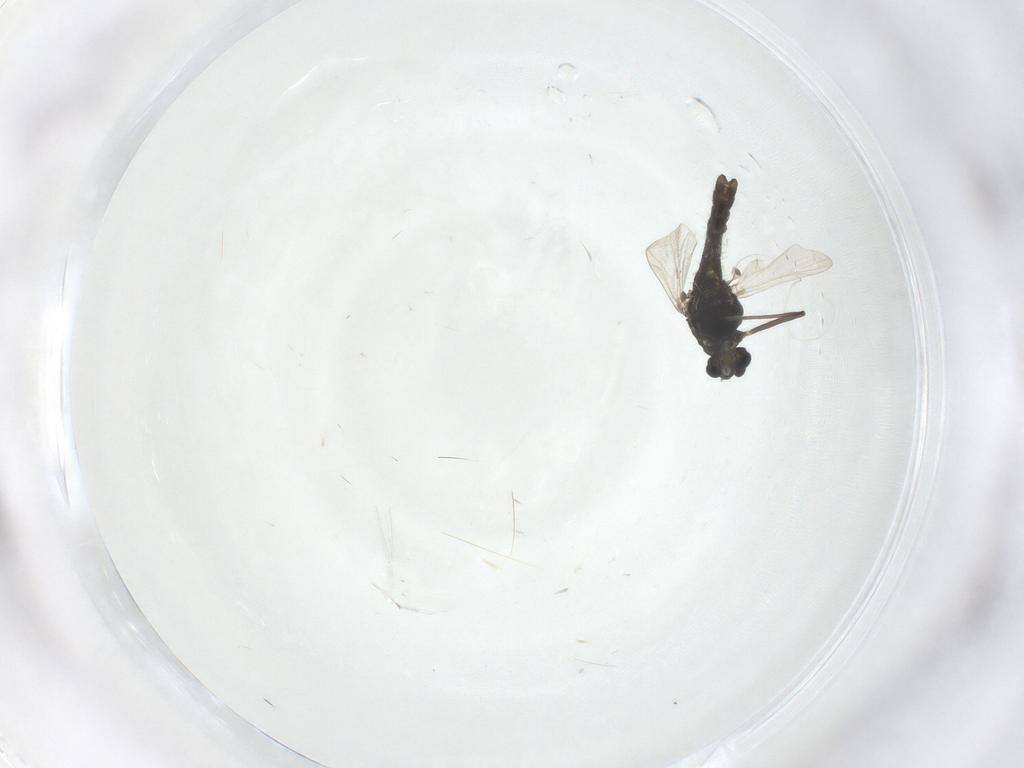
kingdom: Animalia
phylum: Arthropoda
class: Insecta
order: Diptera
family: Chironomidae
